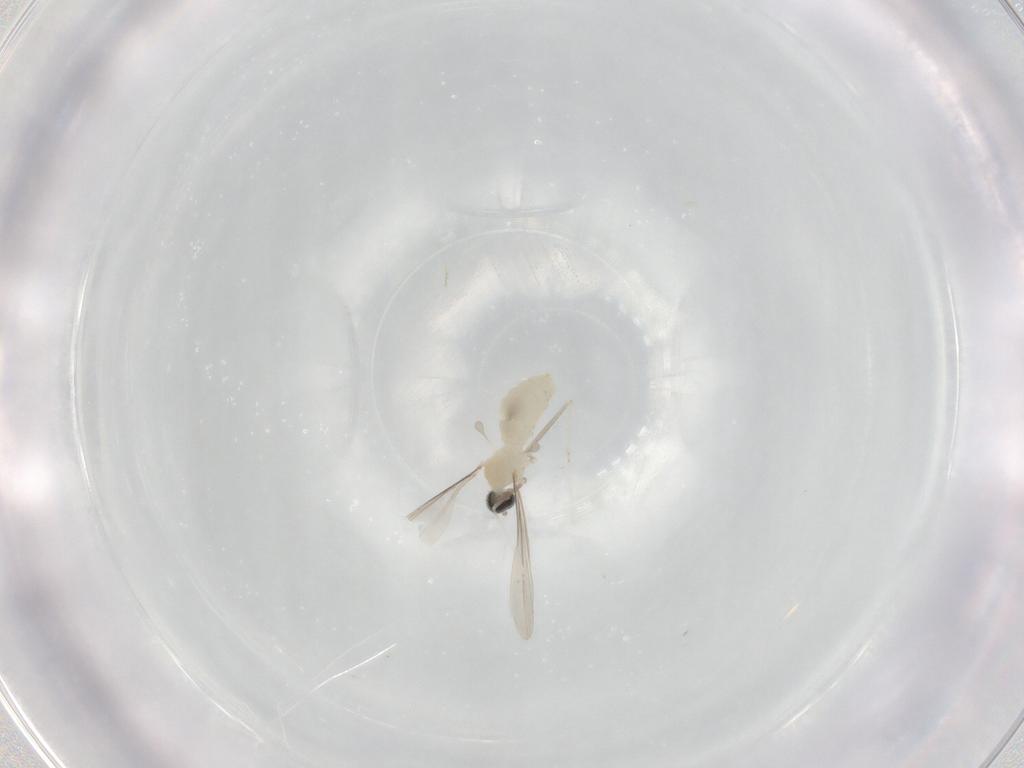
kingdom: Animalia
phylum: Arthropoda
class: Insecta
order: Diptera
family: Cecidomyiidae
